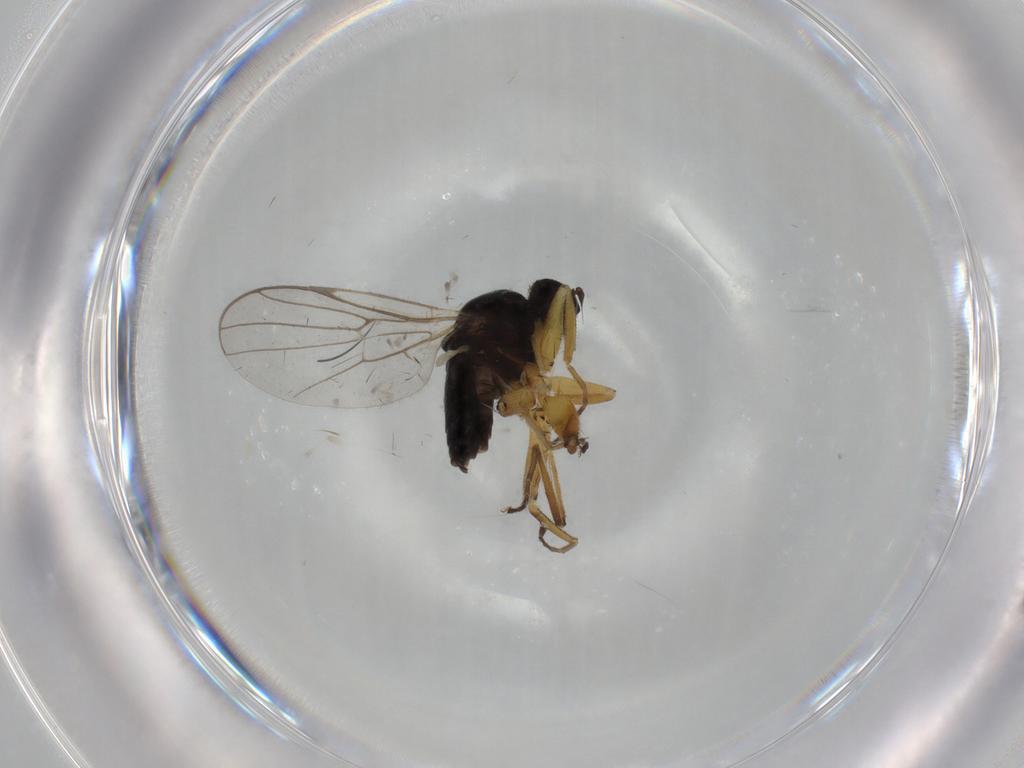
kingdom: Animalia
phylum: Arthropoda
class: Insecta
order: Diptera
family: Hybotidae
